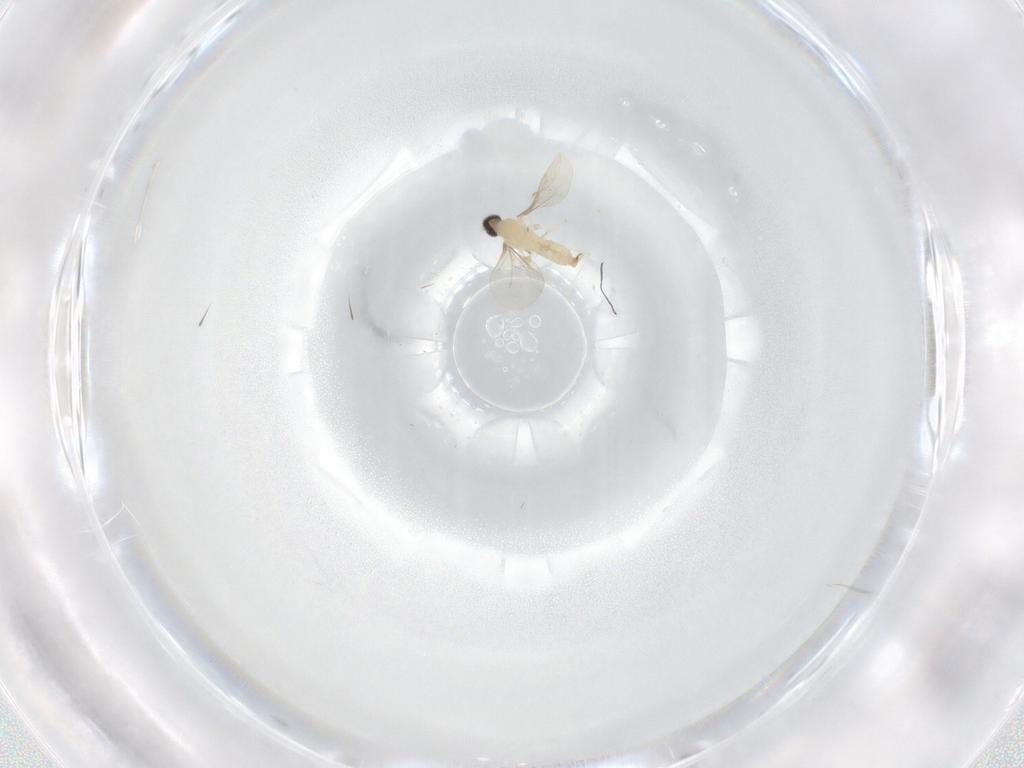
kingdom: Animalia
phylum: Arthropoda
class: Insecta
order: Diptera
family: Cecidomyiidae
